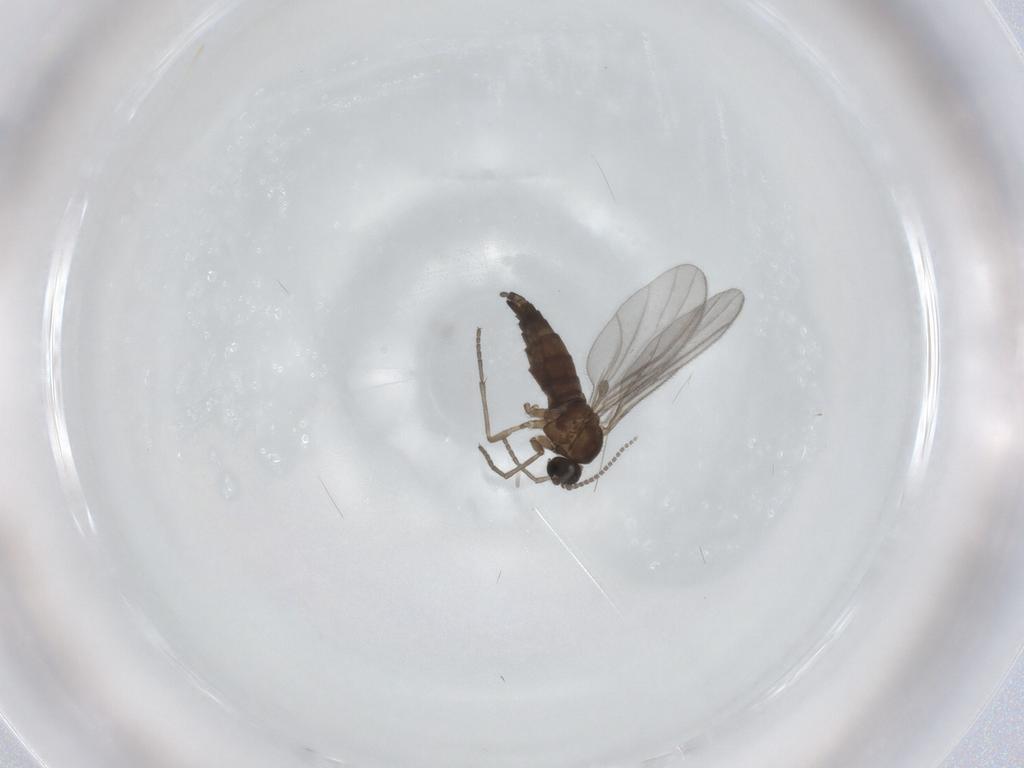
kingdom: Animalia
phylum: Arthropoda
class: Insecta
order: Diptera
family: Cecidomyiidae
